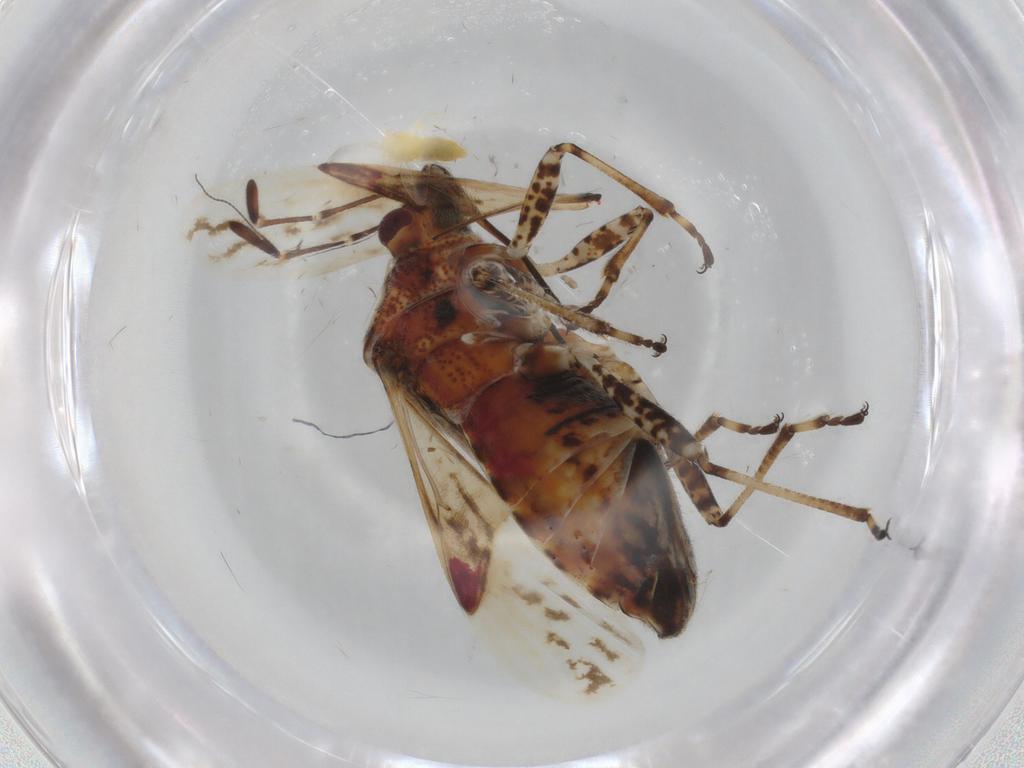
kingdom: Animalia
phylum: Arthropoda
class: Insecta
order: Hemiptera
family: Lygaeidae
